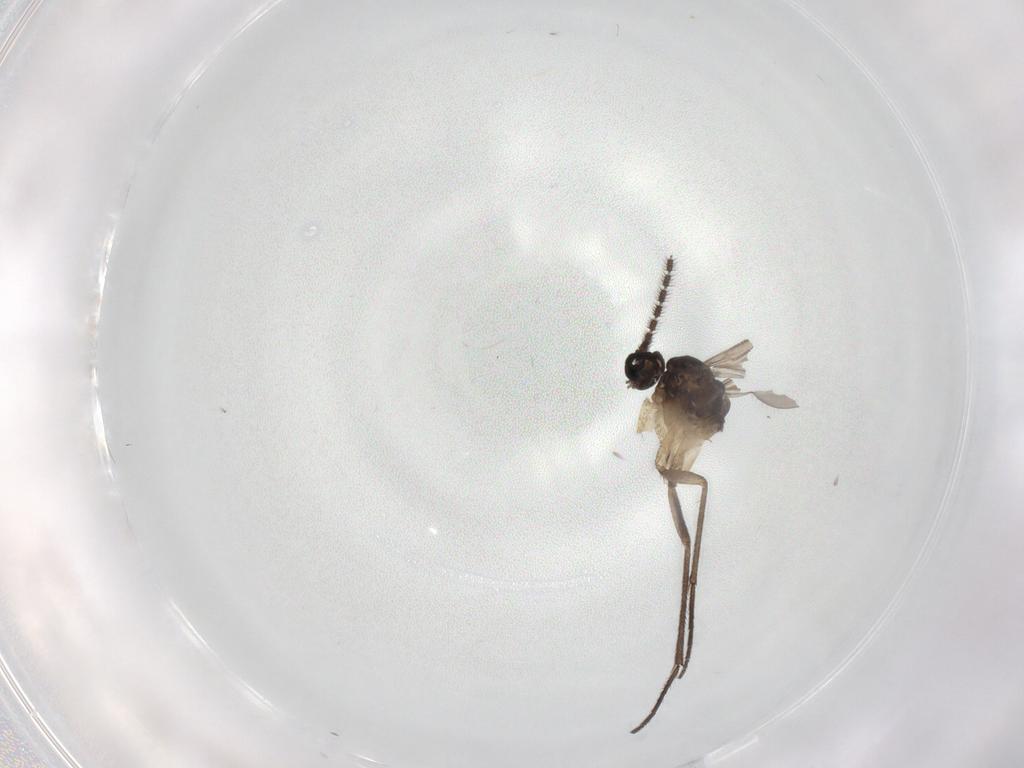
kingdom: Animalia
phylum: Arthropoda
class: Insecta
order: Diptera
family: Sciaridae
